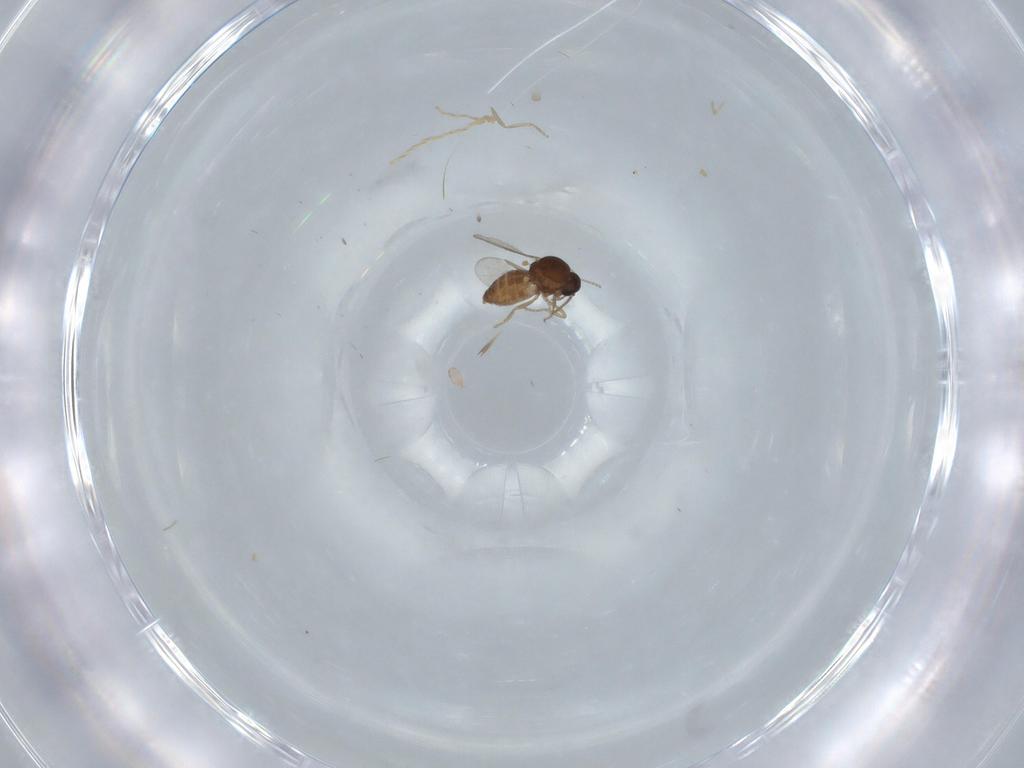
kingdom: Animalia
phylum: Arthropoda
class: Insecta
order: Diptera
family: Ceratopogonidae
